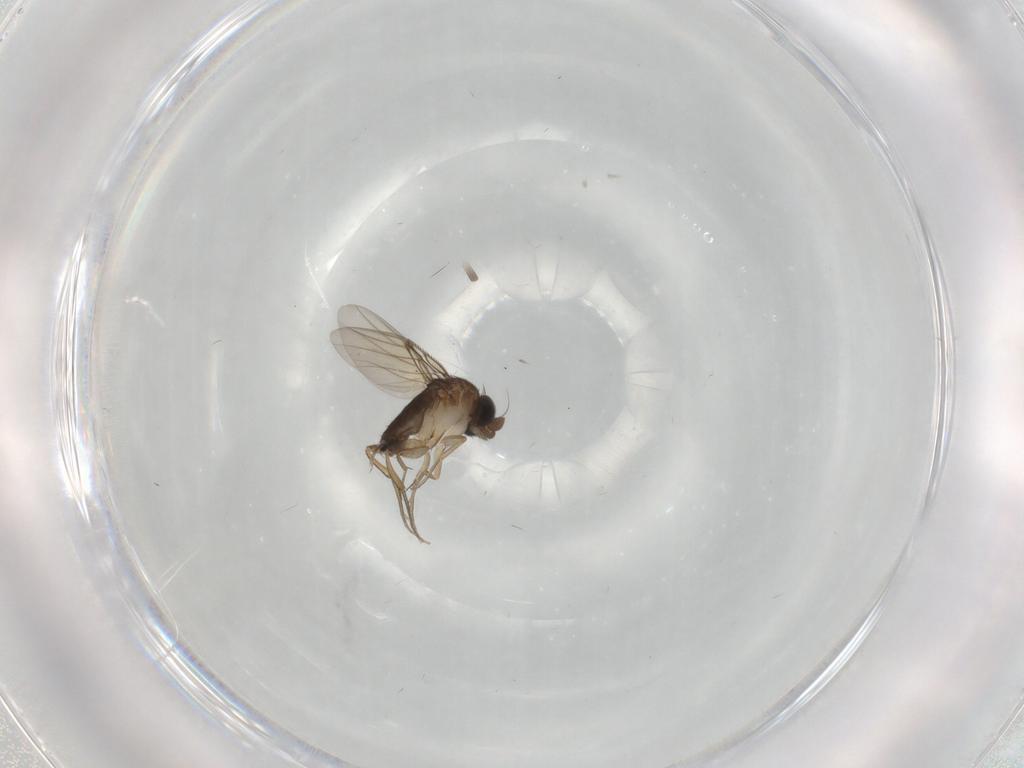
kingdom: Animalia
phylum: Arthropoda
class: Insecta
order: Diptera
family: Phoridae
